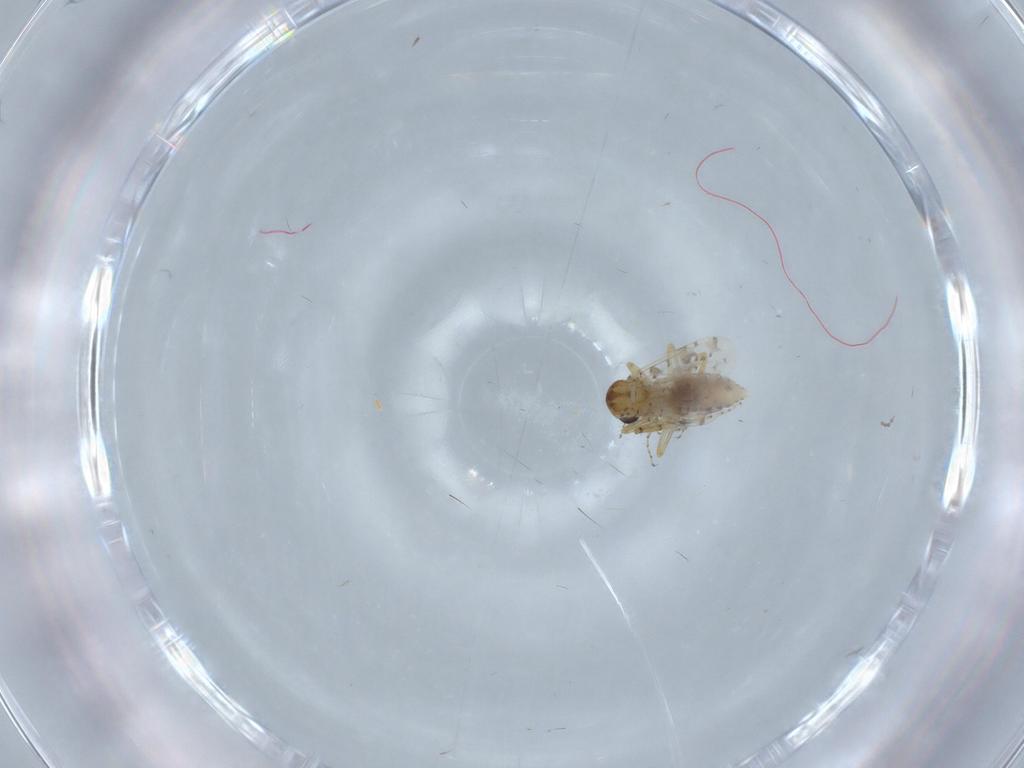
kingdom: Animalia
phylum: Arthropoda
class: Insecta
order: Diptera
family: Ceratopogonidae
